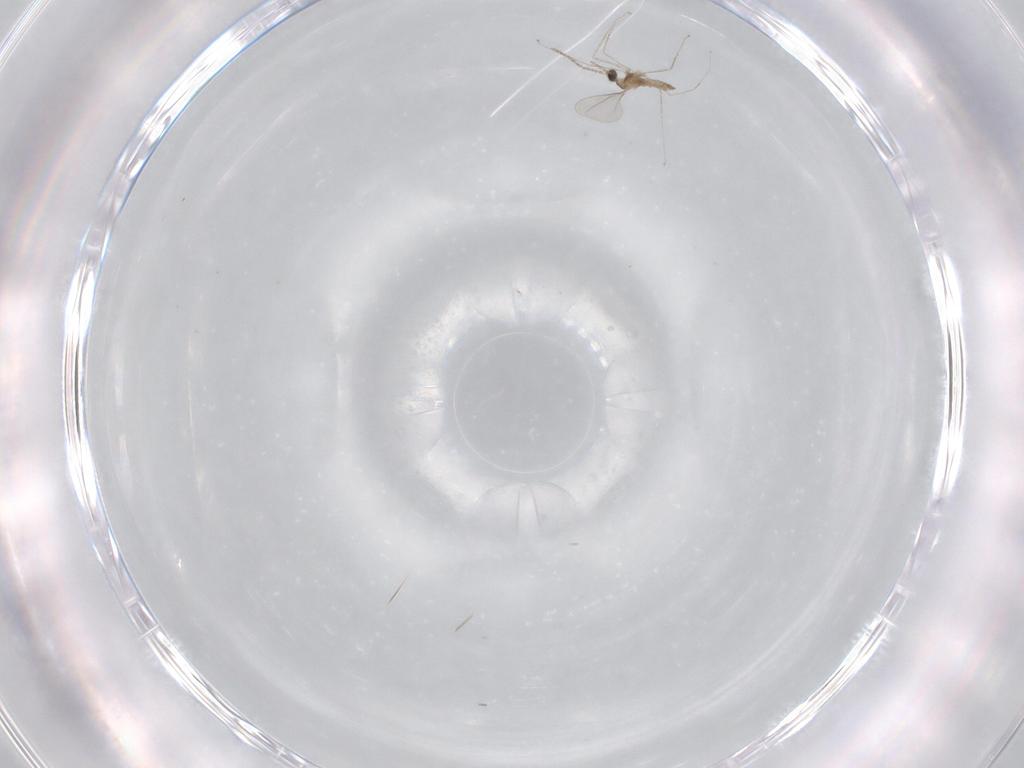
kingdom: Animalia
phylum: Arthropoda
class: Insecta
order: Diptera
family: Cecidomyiidae
